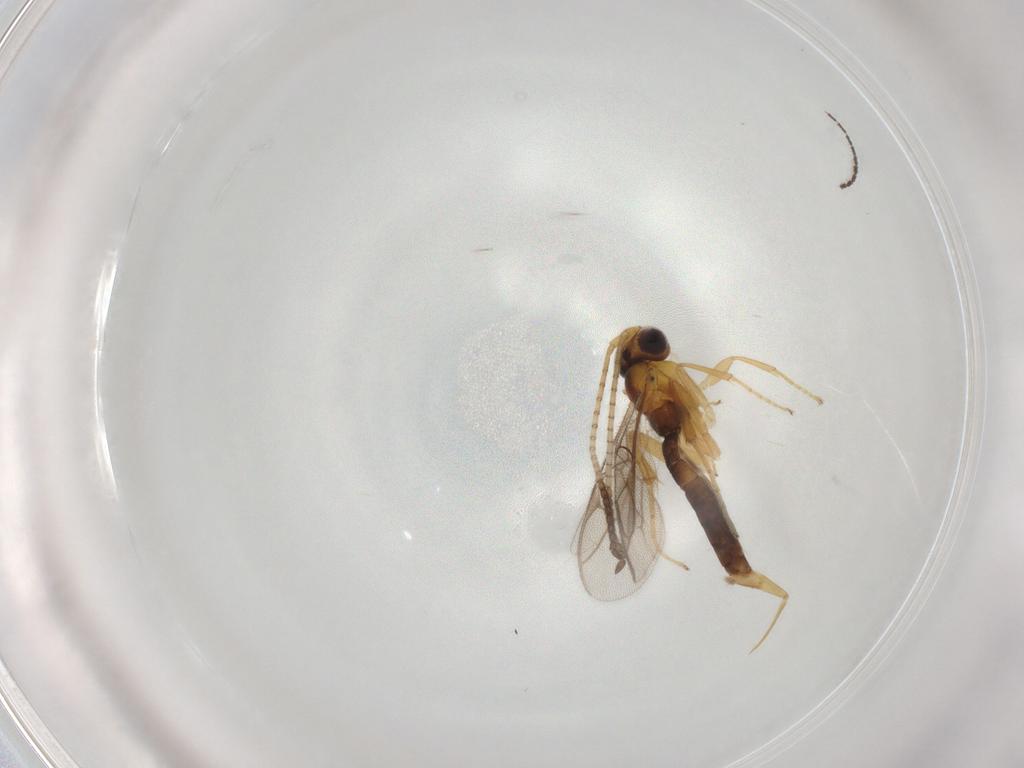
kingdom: Animalia
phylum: Arthropoda
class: Insecta
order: Hymenoptera
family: Ichneumonidae
